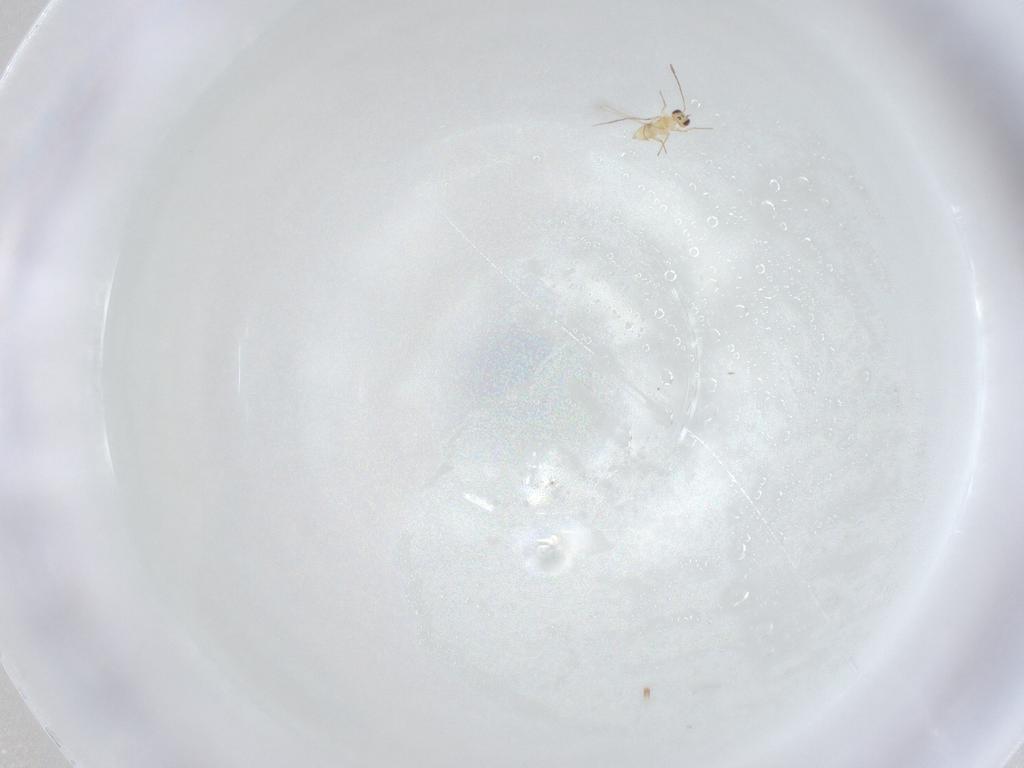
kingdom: Animalia
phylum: Arthropoda
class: Insecta
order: Hymenoptera
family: Mymaridae
